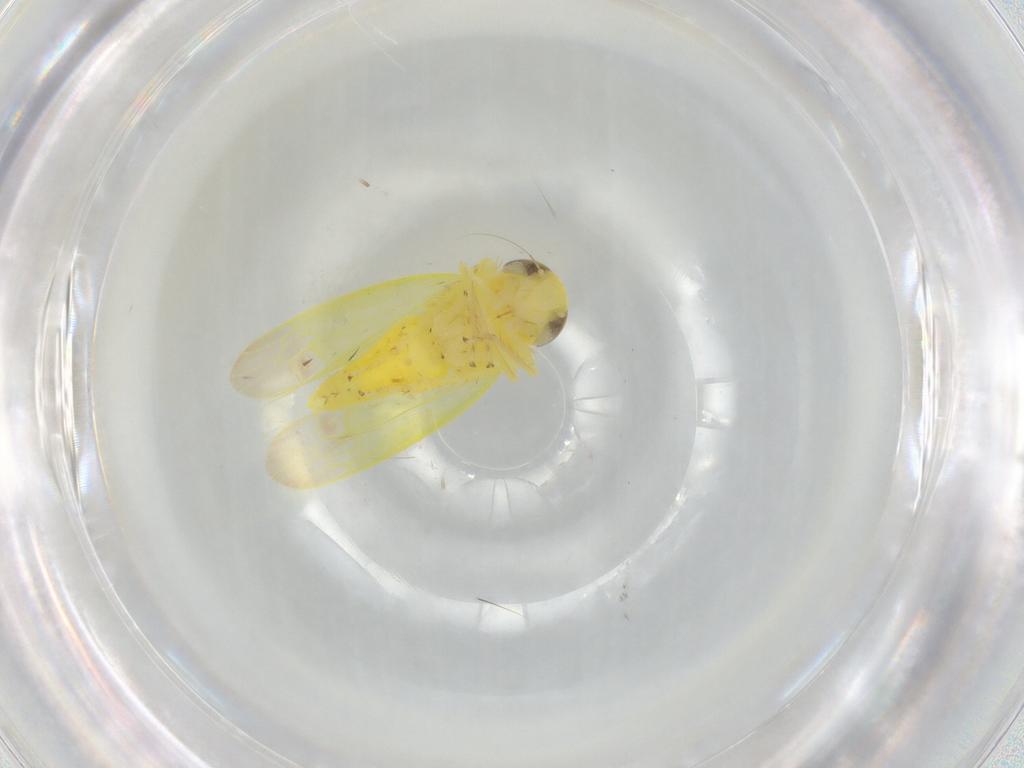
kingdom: Animalia
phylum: Arthropoda
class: Insecta
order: Hemiptera
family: Cicadellidae
